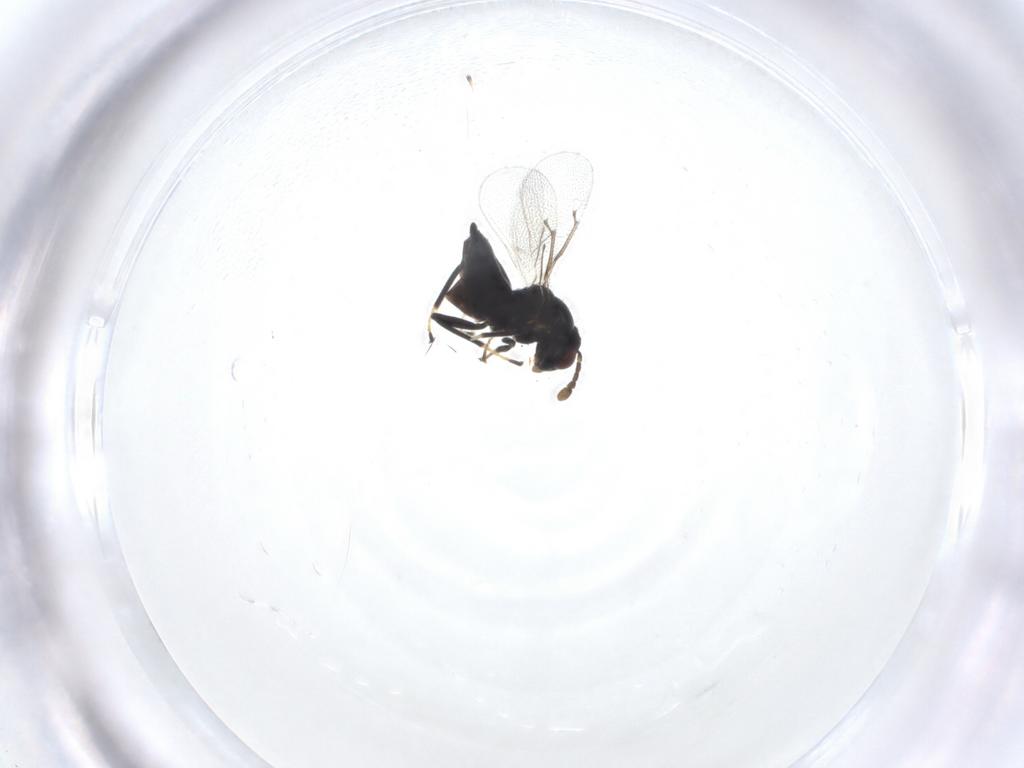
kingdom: Animalia
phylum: Arthropoda
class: Insecta
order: Hymenoptera
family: Eulophidae
